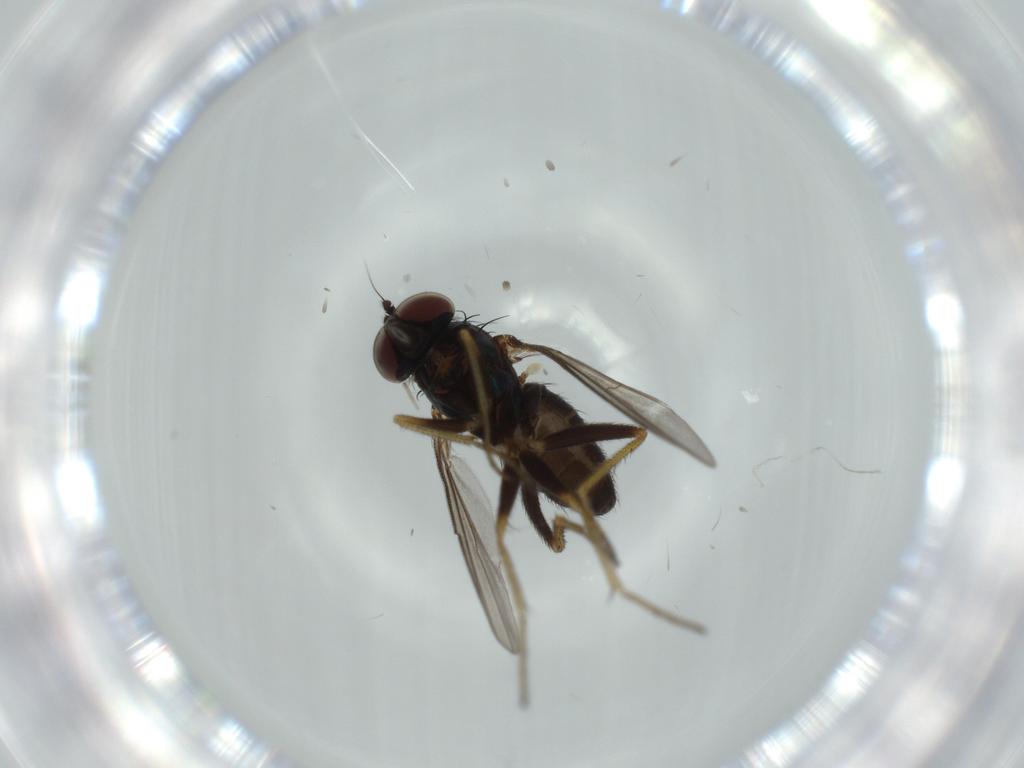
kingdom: Animalia
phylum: Arthropoda
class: Insecta
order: Diptera
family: Dolichopodidae
